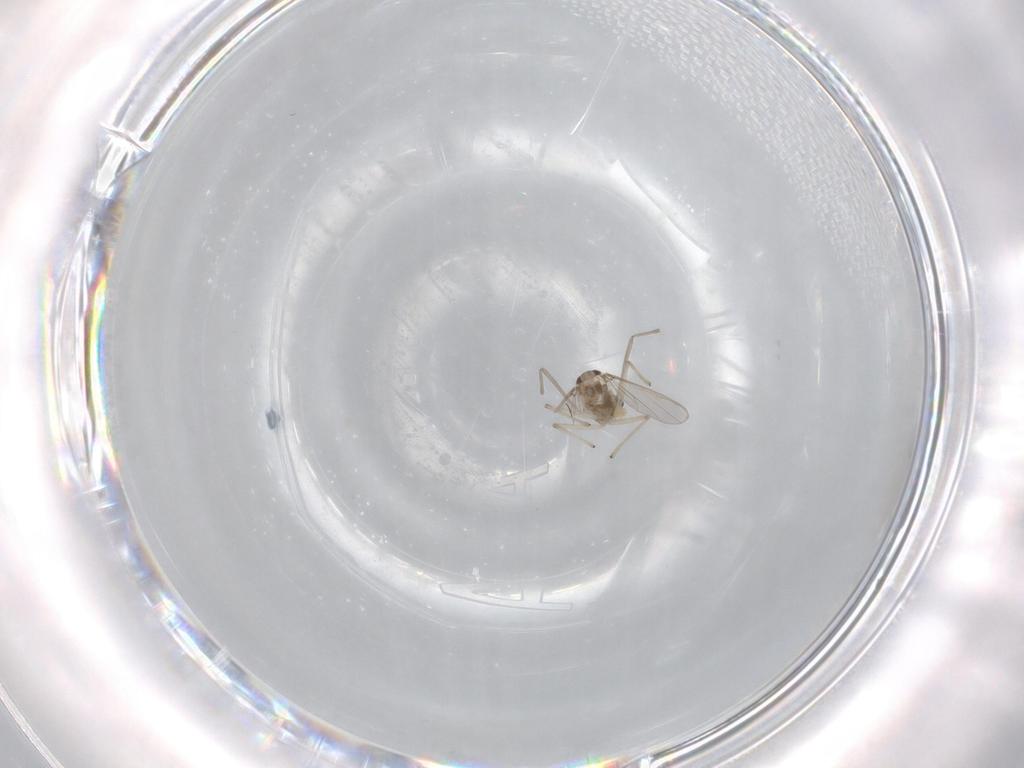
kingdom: Animalia
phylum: Arthropoda
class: Insecta
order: Diptera
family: Chironomidae
